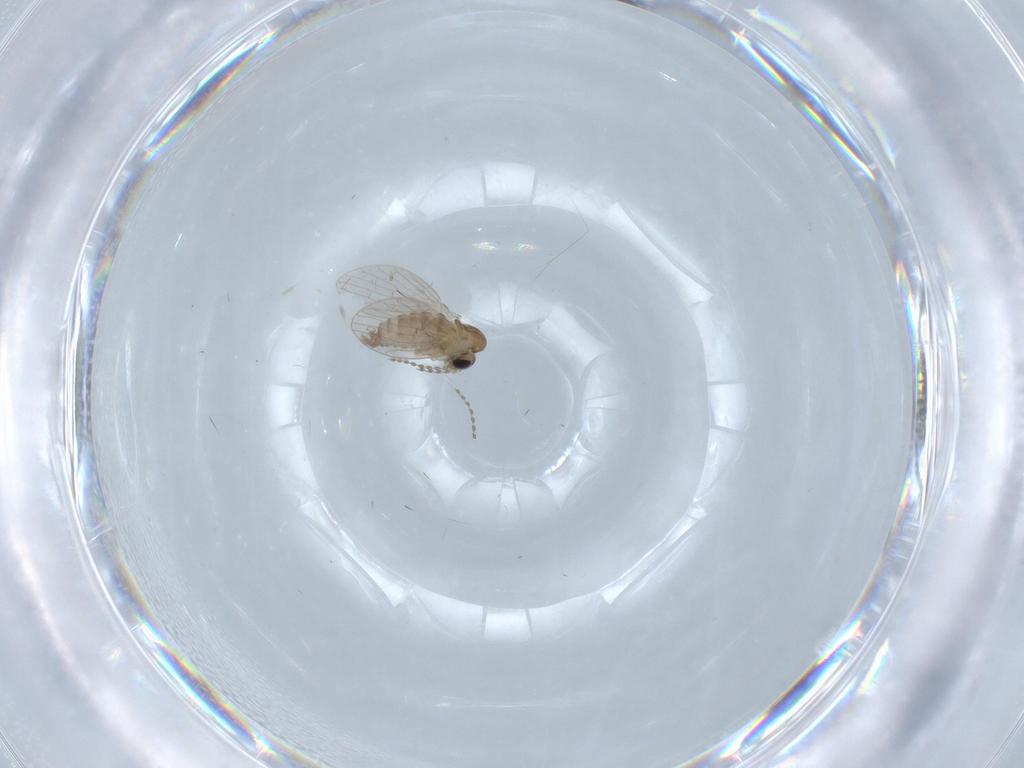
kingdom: Animalia
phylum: Arthropoda
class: Insecta
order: Diptera
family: Psychodidae
